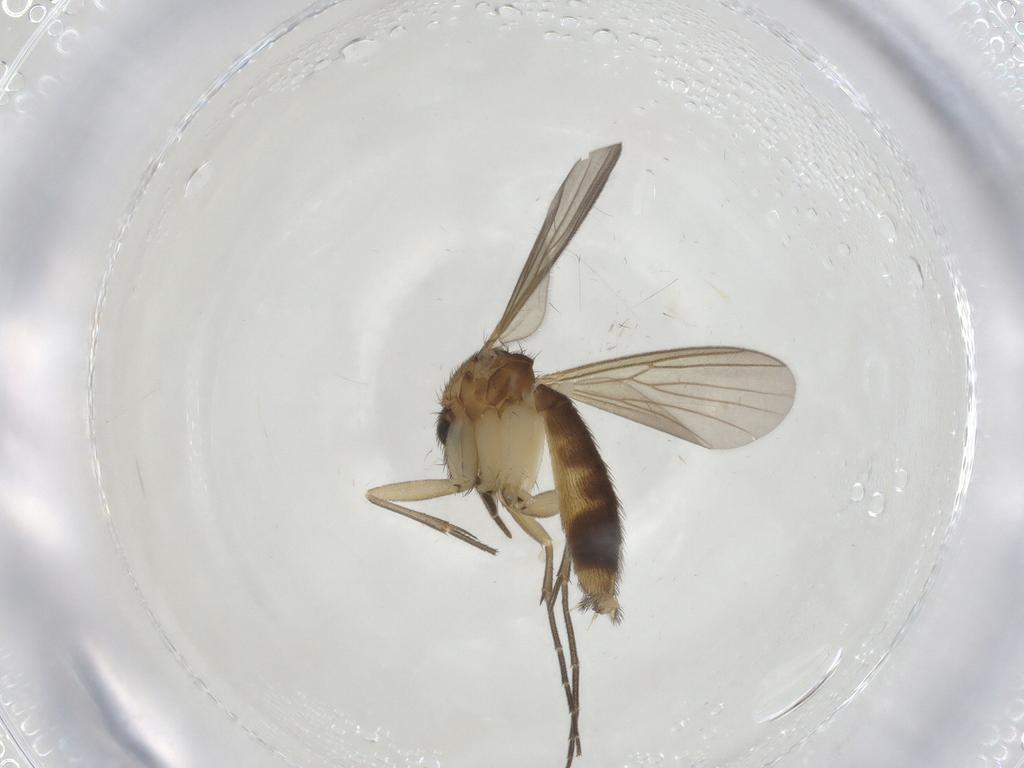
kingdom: Animalia
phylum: Arthropoda
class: Insecta
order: Diptera
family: Mycetophilidae
